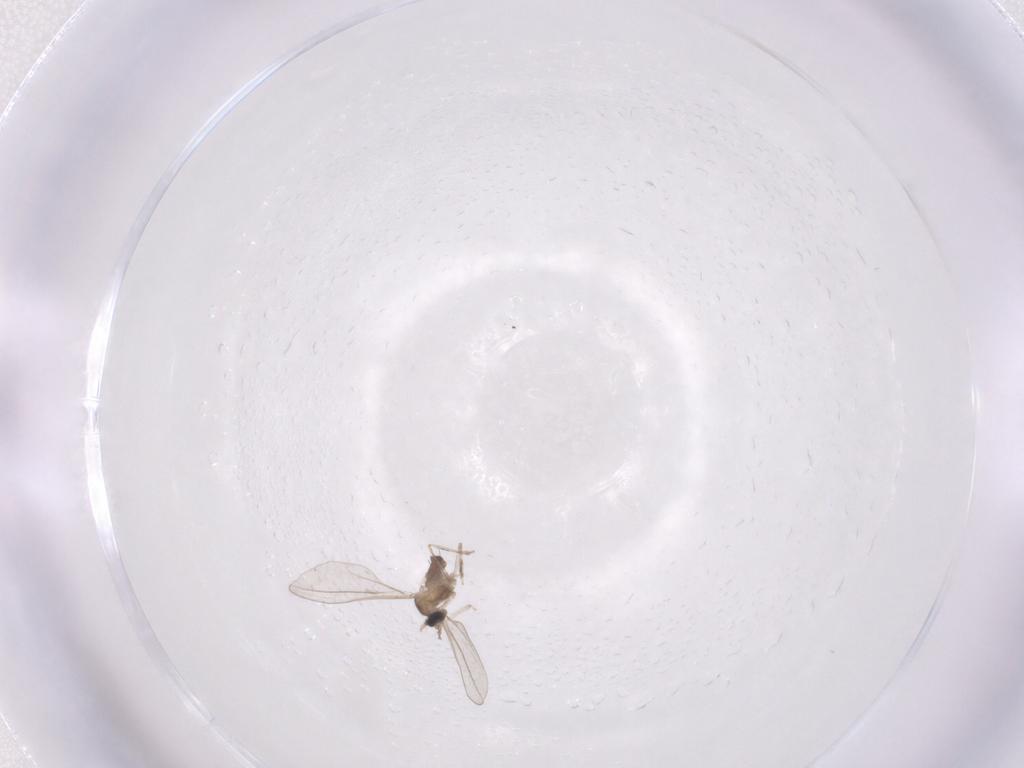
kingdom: Animalia
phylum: Arthropoda
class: Insecta
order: Diptera
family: Cecidomyiidae
